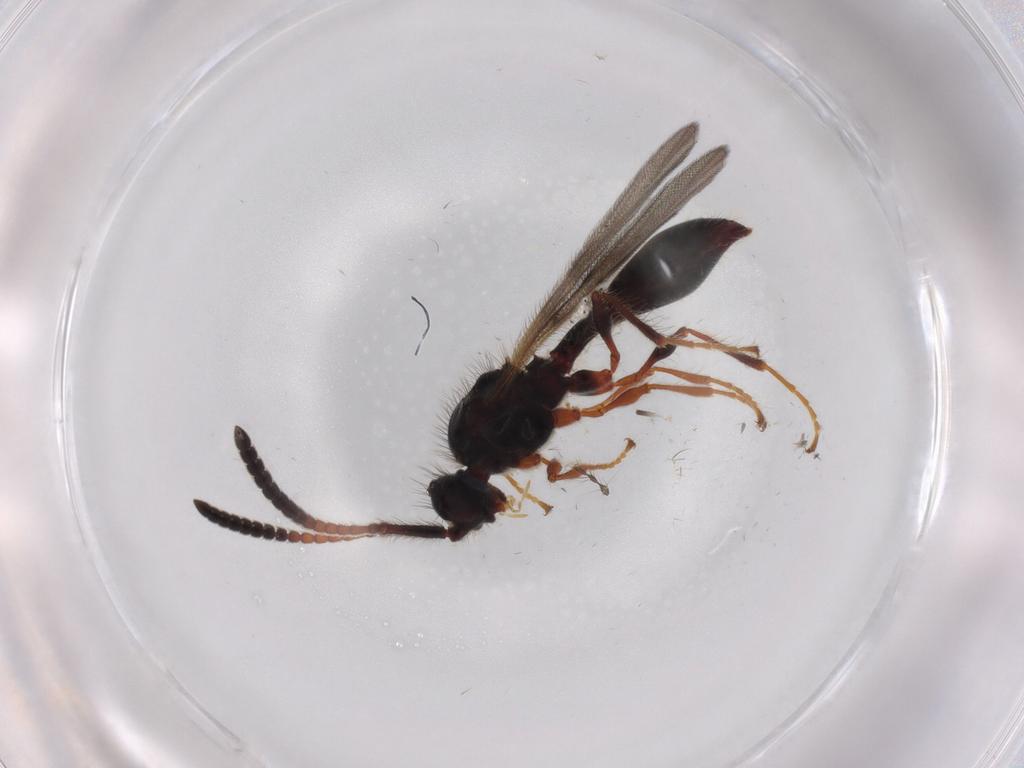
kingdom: Animalia
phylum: Arthropoda
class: Insecta
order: Hymenoptera
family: Diapriidae
